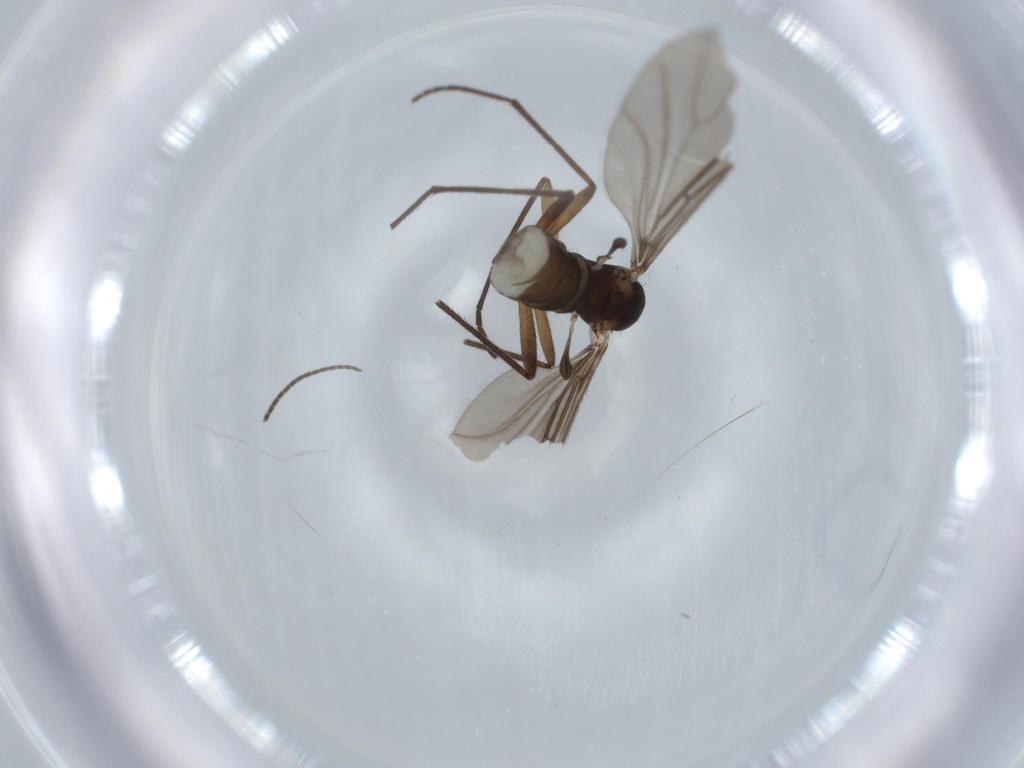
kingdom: Animalia
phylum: Arthropoda
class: Insecta
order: Diptera
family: Sciaridae
